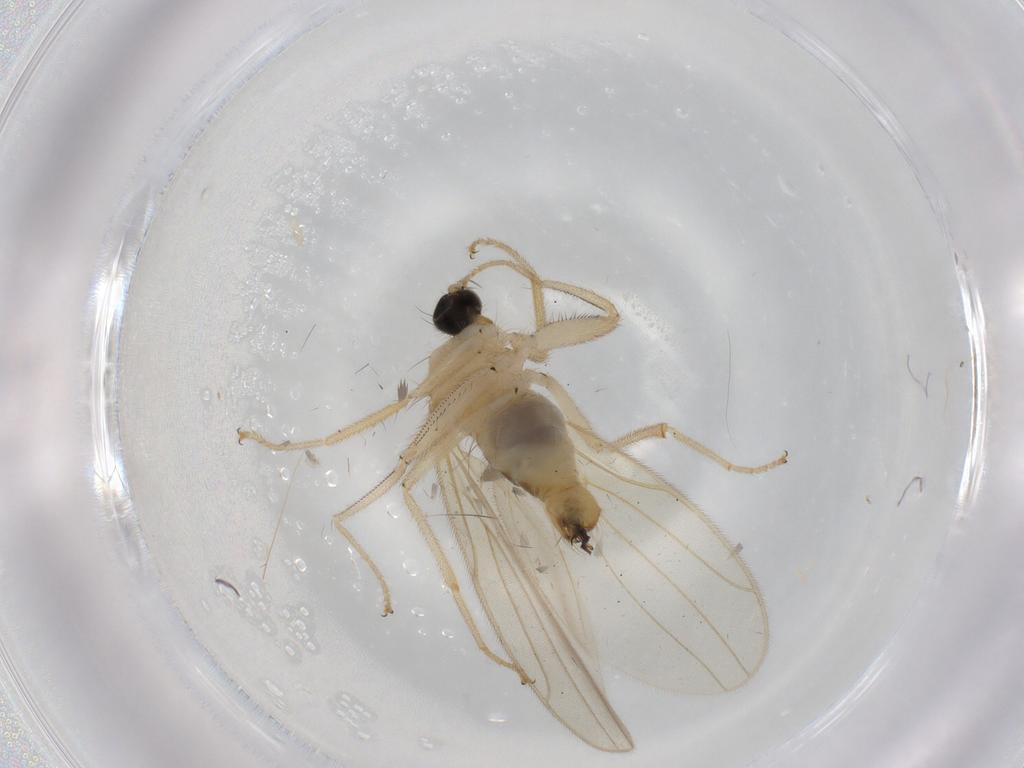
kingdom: Animalia
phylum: Arthropoda
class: Insecta
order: Diptera
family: Hybotidae
